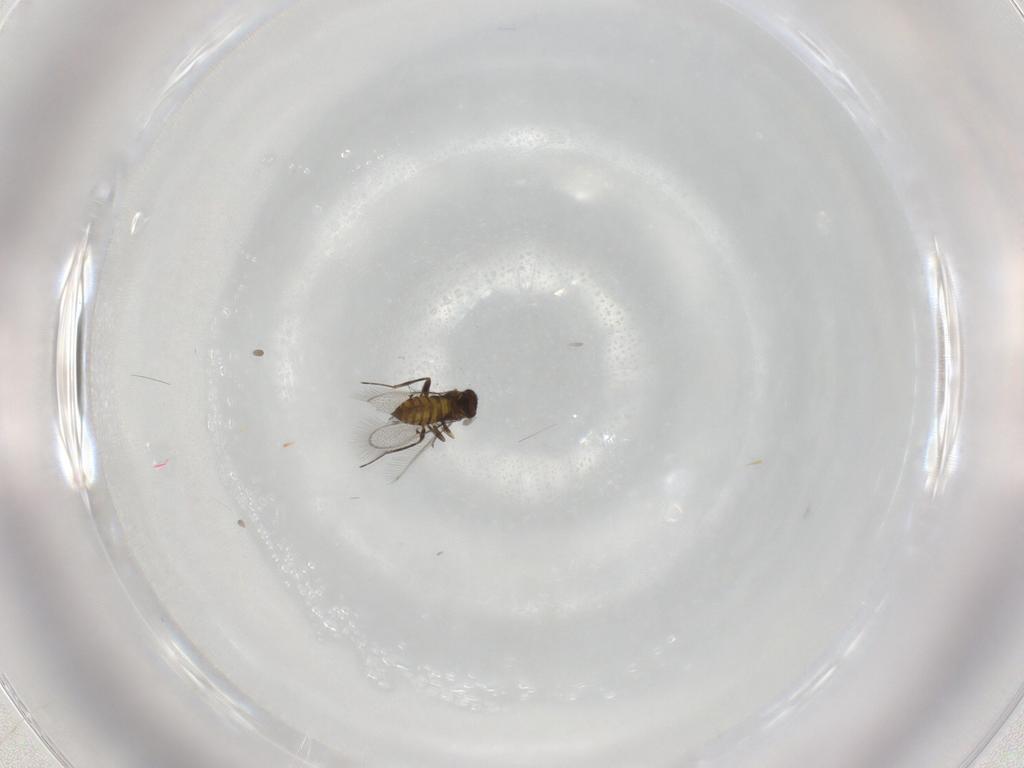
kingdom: Animalia
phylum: Arthropoda
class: Insecta
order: Hymenoptera
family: Trichogrammatidae
